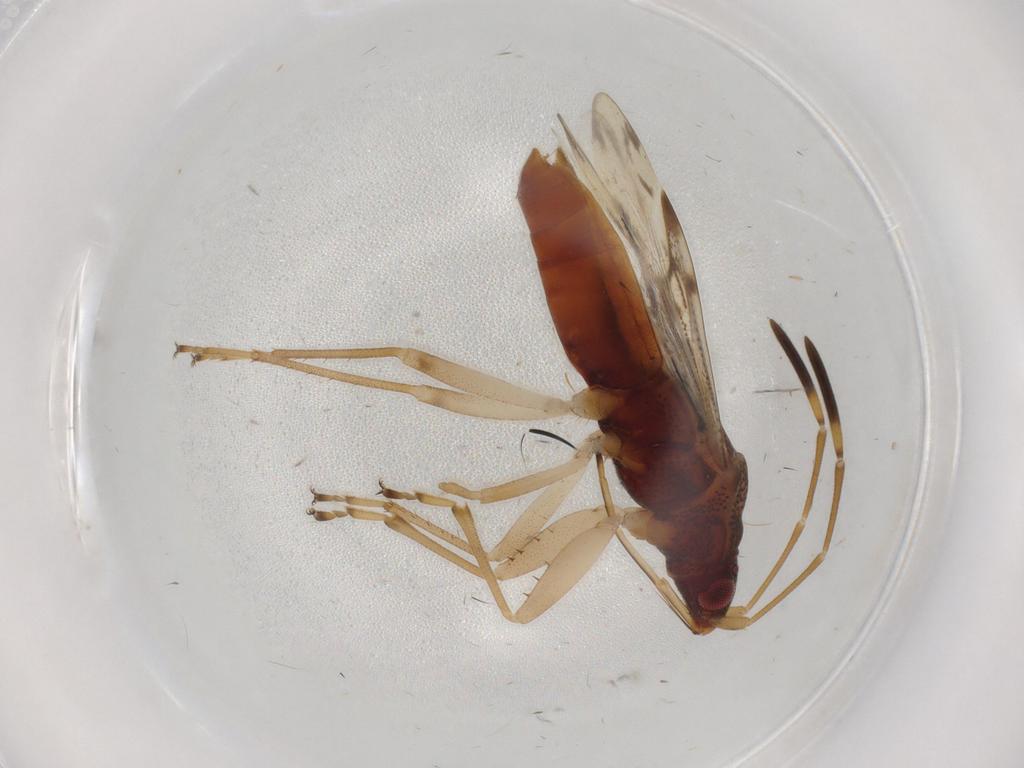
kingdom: Animalia
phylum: Arthropoda
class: Insecta
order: Hemiptera
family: Rhyparochromidae
